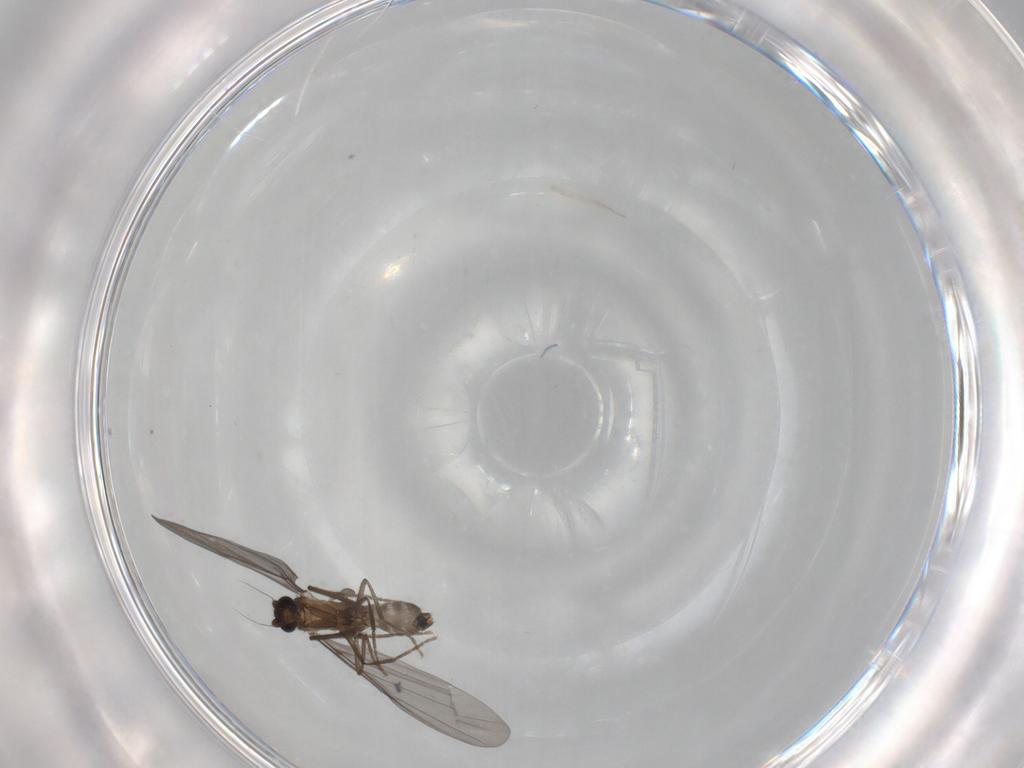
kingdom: Animalia
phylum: Arthropoda
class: Insecta
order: Diptera
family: Phoridae
